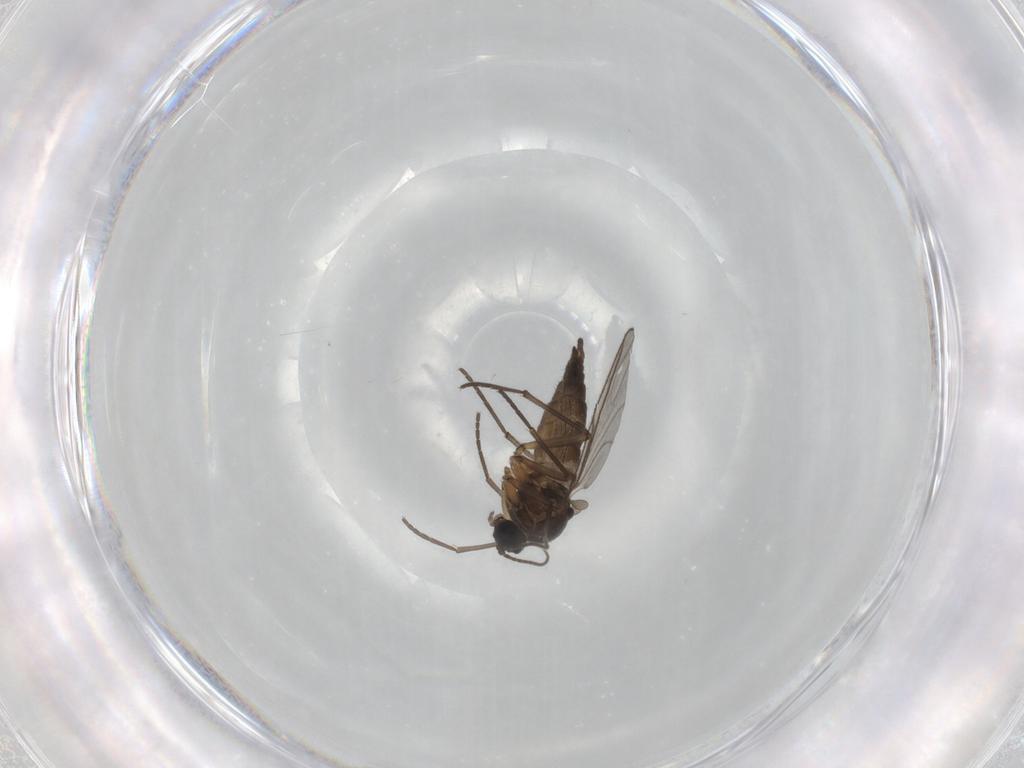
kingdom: Animalia
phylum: Arthropoda
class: Insecta
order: Diptera
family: Sciaridae
